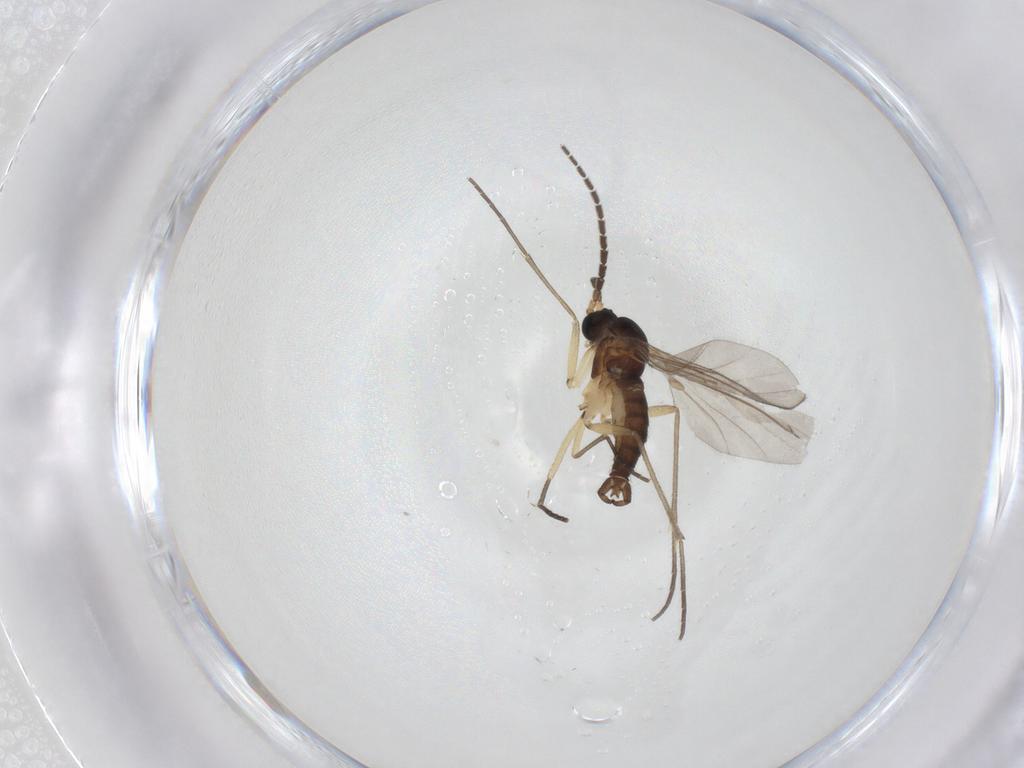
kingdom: Animalia
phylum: Arthropoda
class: Insecta
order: Diptera
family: Sciaridae
